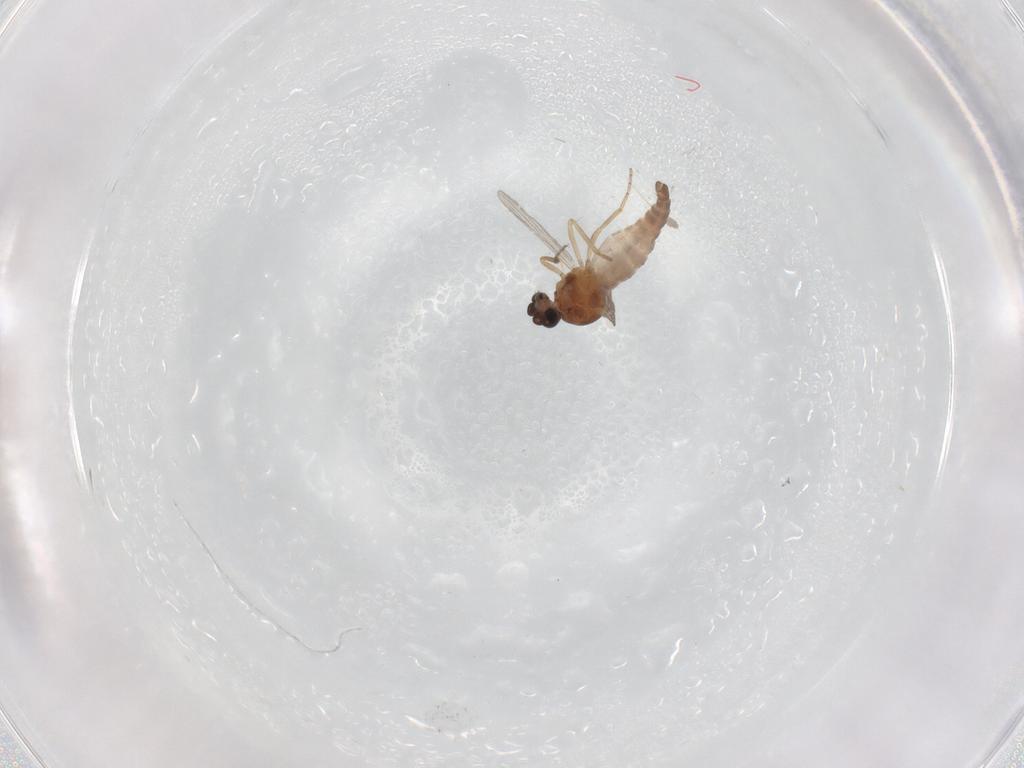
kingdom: Animalia
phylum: Arthropoda
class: Insecta
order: Diptera
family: Ceratopogonidae
